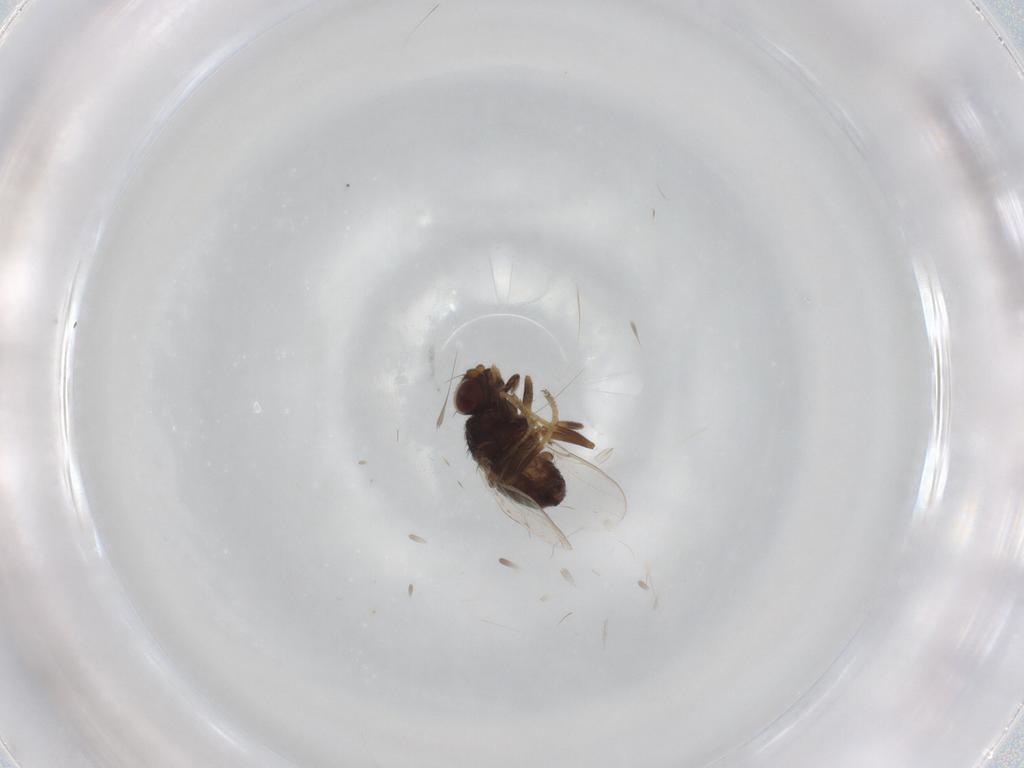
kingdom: Animalia
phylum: Arthropoda
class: Insecta
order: Diptera
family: Chloropidae
